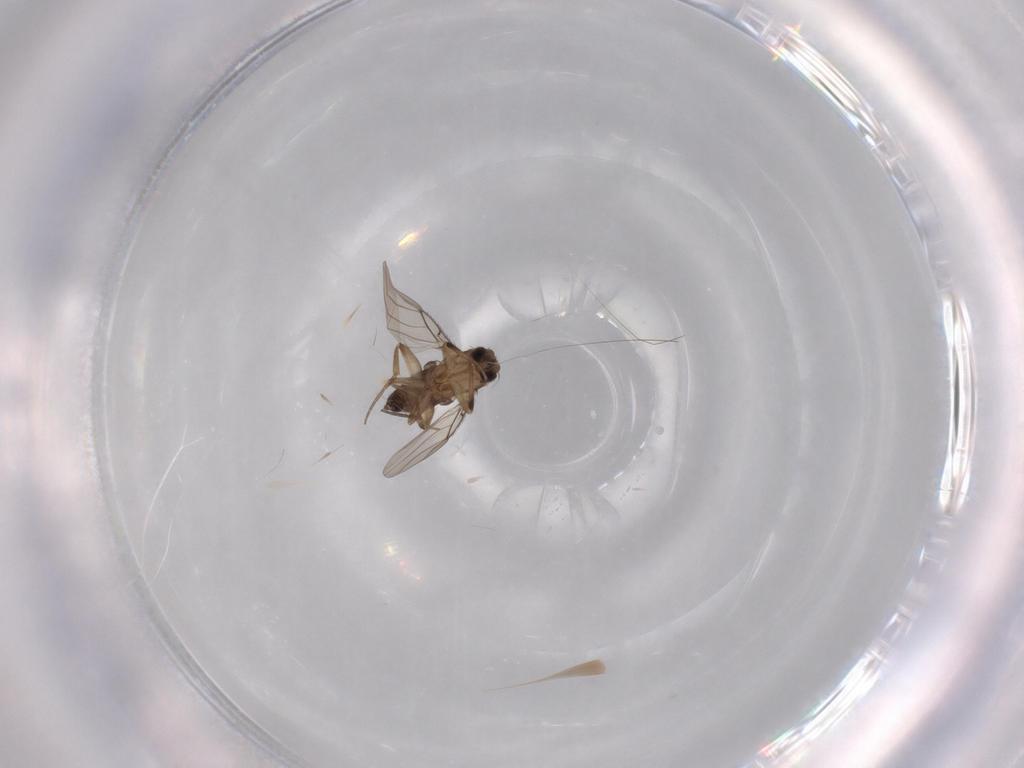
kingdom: Animalia
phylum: Arthropoda
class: Insecta
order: Diptera
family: Phoridae
